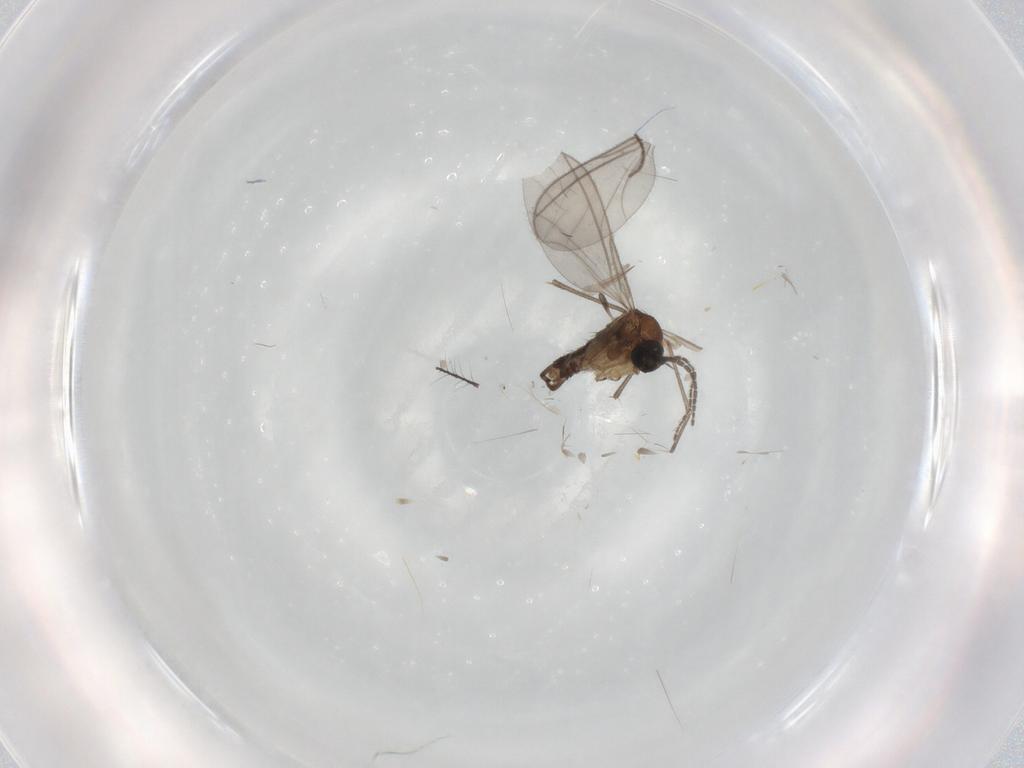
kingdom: Animalia
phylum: Arthropoda
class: Insecta
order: Diptera
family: Sciaridae
